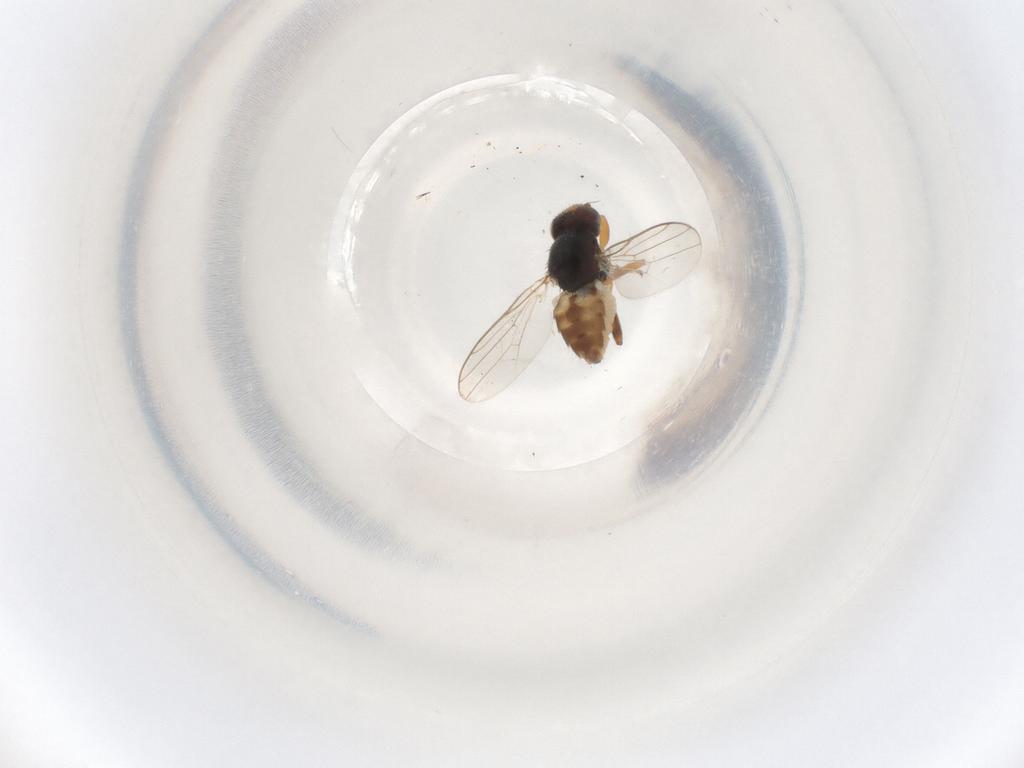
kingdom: Animalia
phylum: Arthropoda
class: Insecta
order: Diptera
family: Chloropidae
